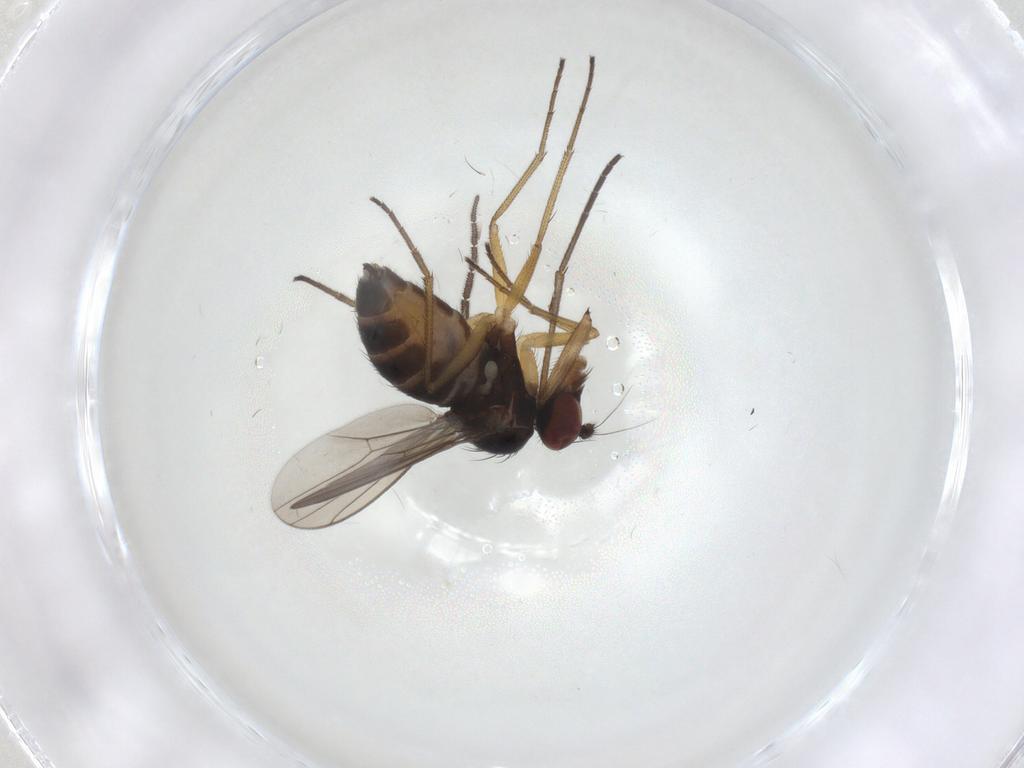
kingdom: Animalia
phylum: Arthropoda
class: Insecta
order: Diptera
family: Dolichopodidae
